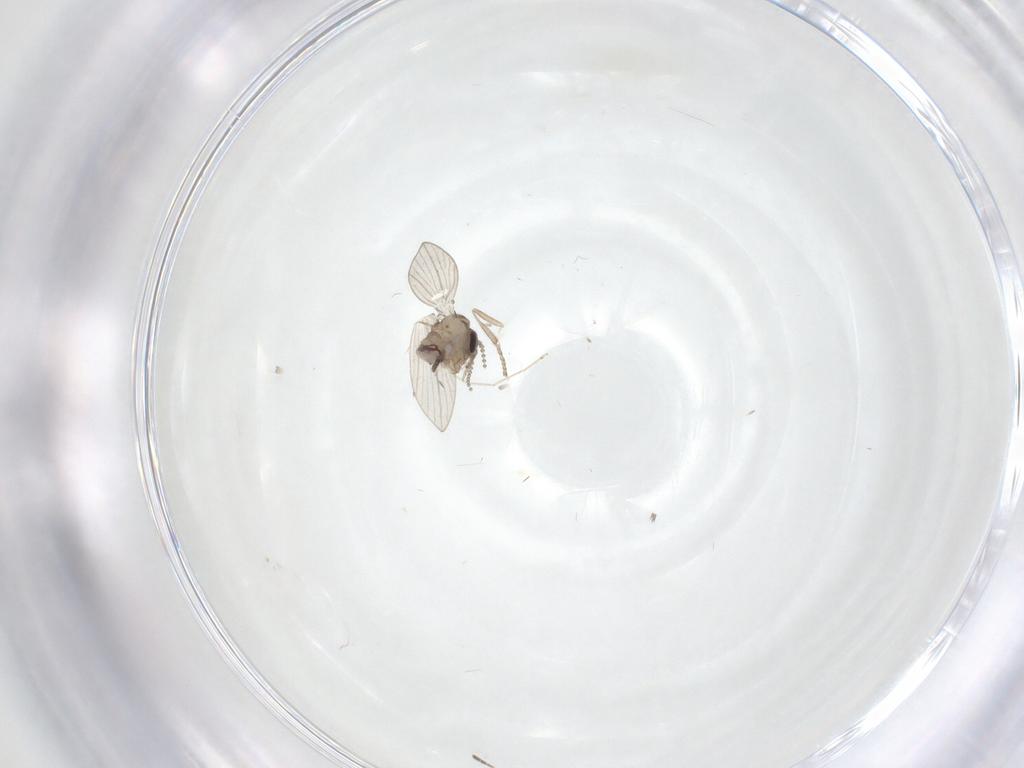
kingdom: Animalia
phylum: Arthropoda
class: Insecta
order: Diptera
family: Psychodidae
